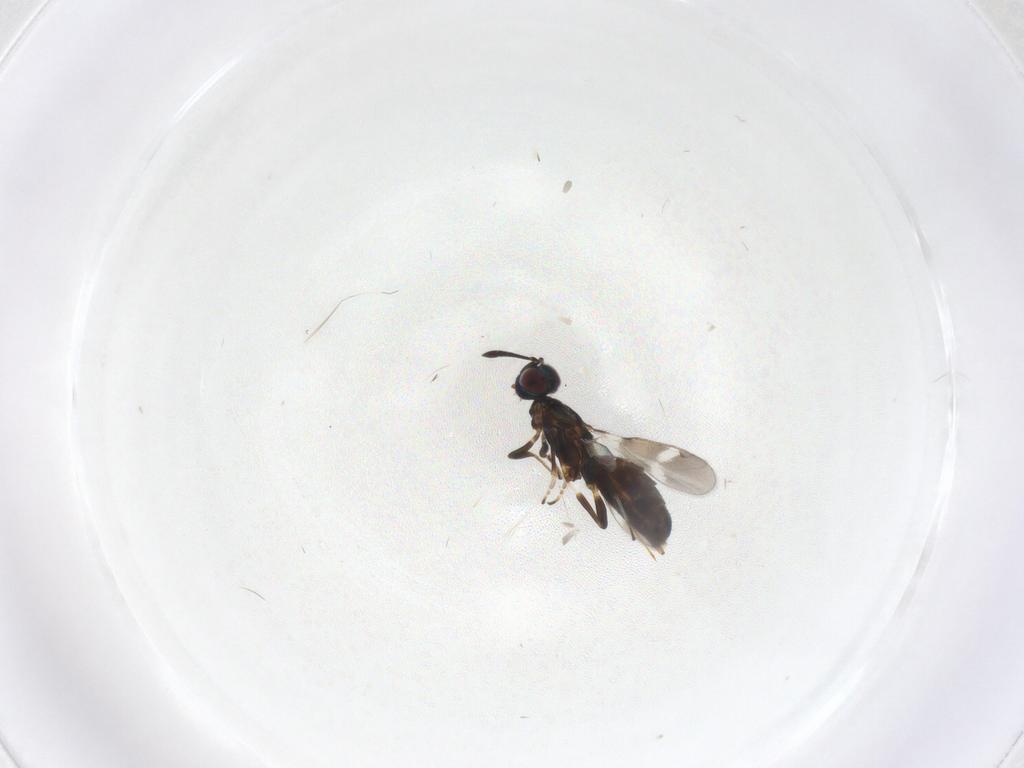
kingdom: Animalia
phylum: Arthropoda
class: Insecta
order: Hymenoptera
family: Eupelmidae
